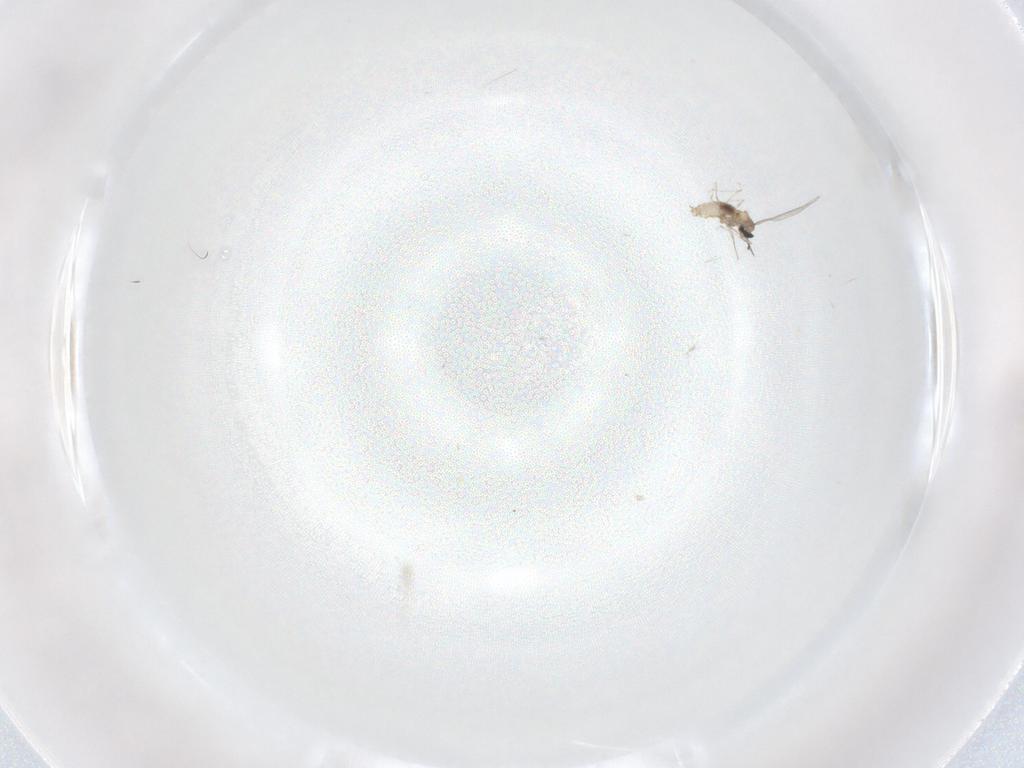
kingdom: Animalia
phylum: Arthropoda
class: Insecta
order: Diptera
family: Cecidomyiidae
